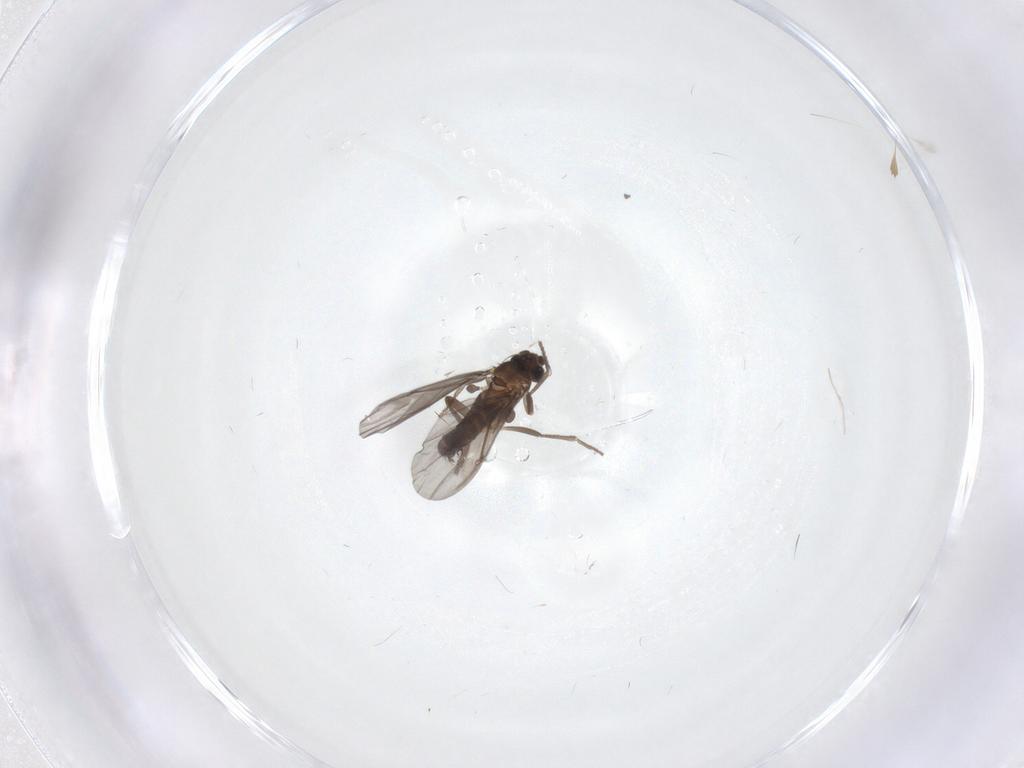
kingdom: Animalia
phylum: Arthropoda
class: Insecta
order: Diptera
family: Phoridae
